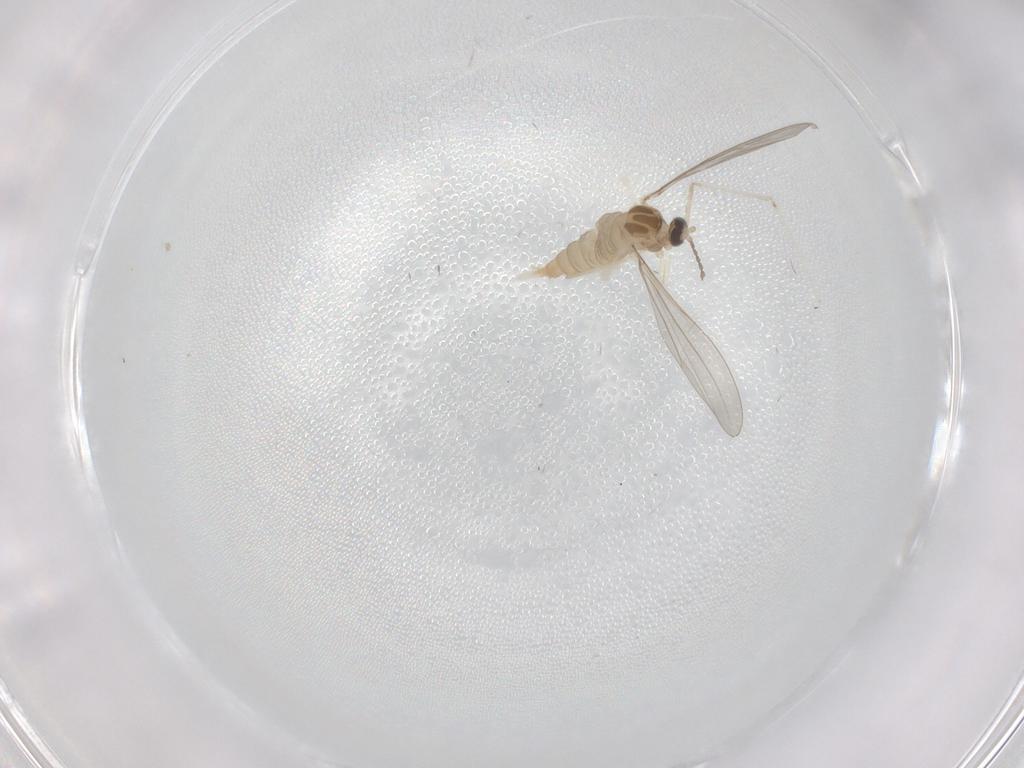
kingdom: Animalia
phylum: Arthropoda
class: Insecta
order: Diptera
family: Cecidomyiidae
